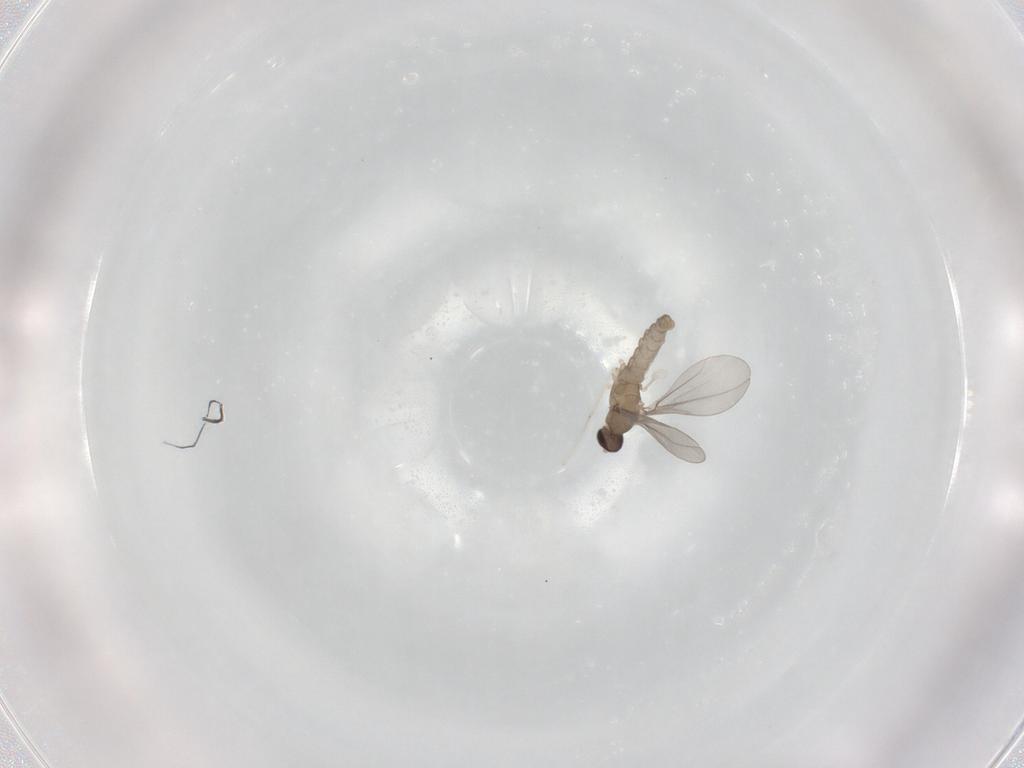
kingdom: Animalia
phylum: Arthropoda
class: Insecta
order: Diptera
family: Cecidomyiidae
